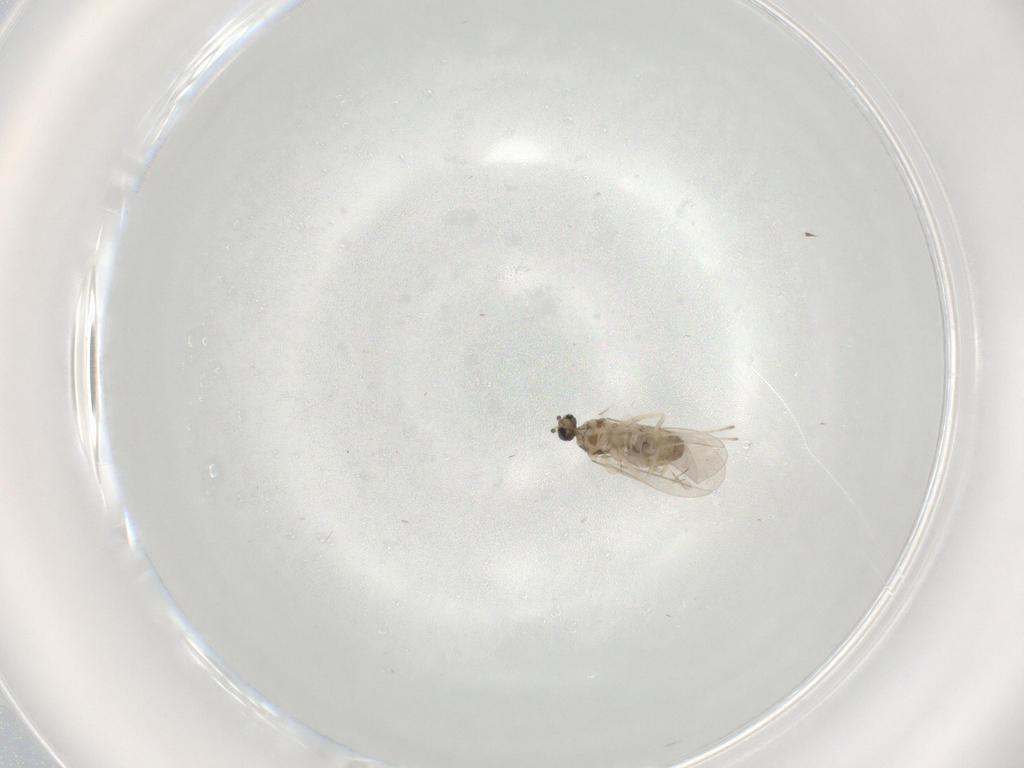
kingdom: Animalia
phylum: Arthropoda
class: Insecta
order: Diptera
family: Cecidomyiidae
